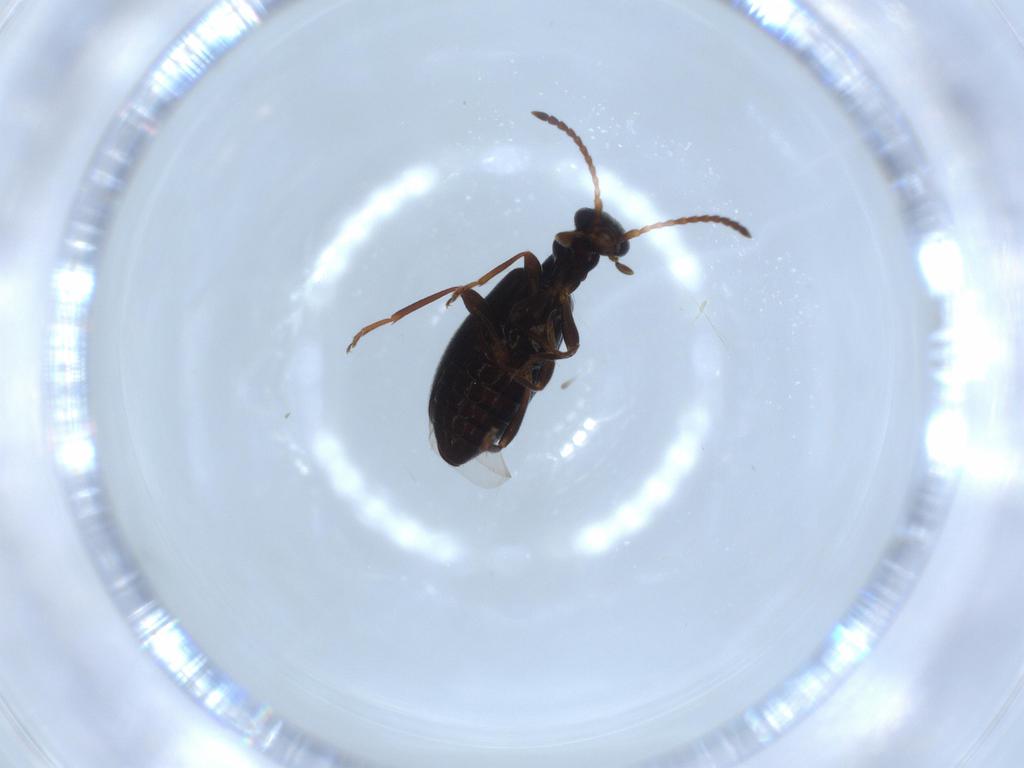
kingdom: Animalia
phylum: Arthropoda
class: Insecta
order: Coleoptera
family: Anthicidae
